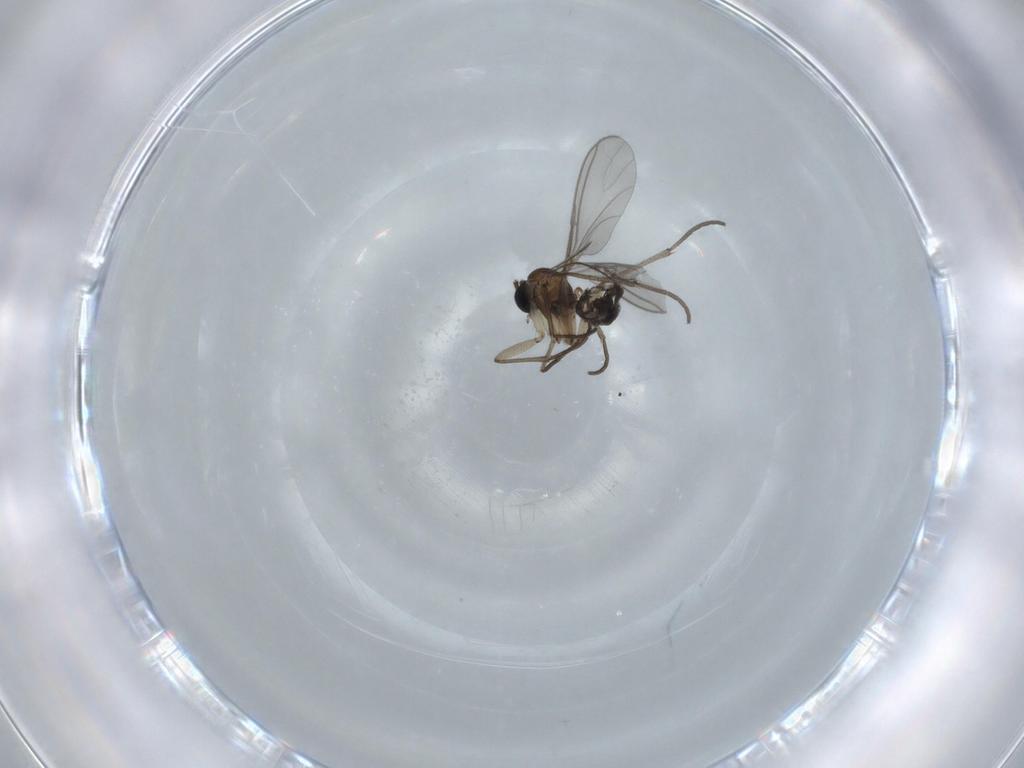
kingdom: Animalia
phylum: Arthropoda
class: Insecta
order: Diptera
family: Sciaridae
